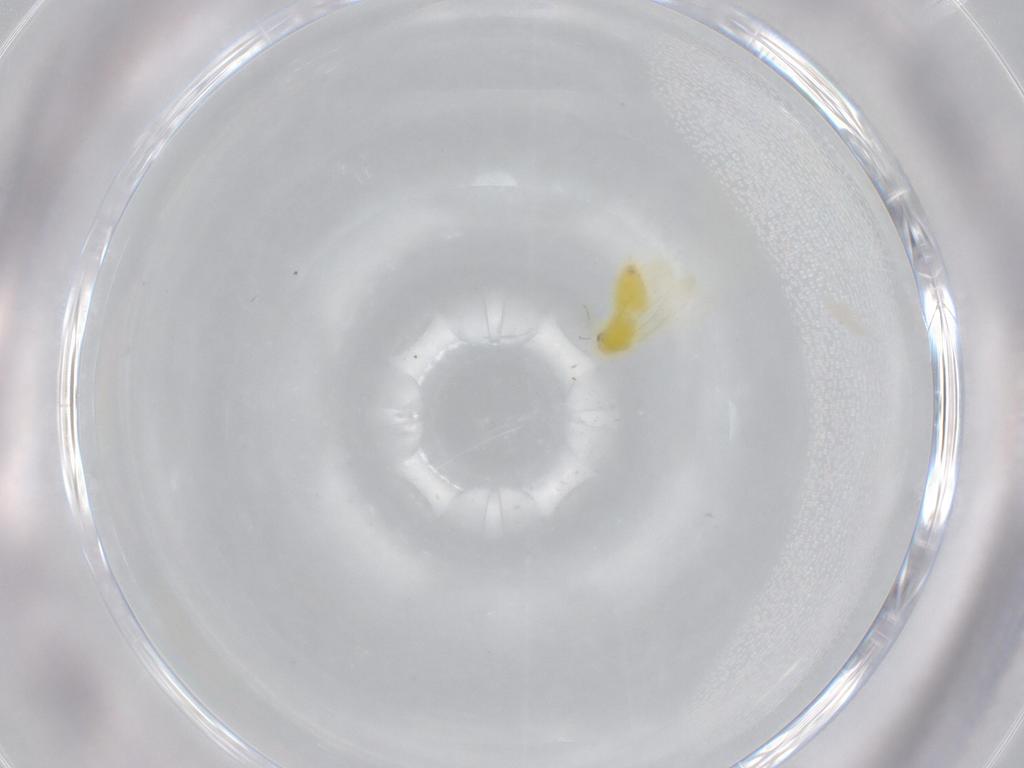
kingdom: Animalia
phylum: Arthropoda
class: Insecta
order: Hemiptera
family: Aleyrodidae
